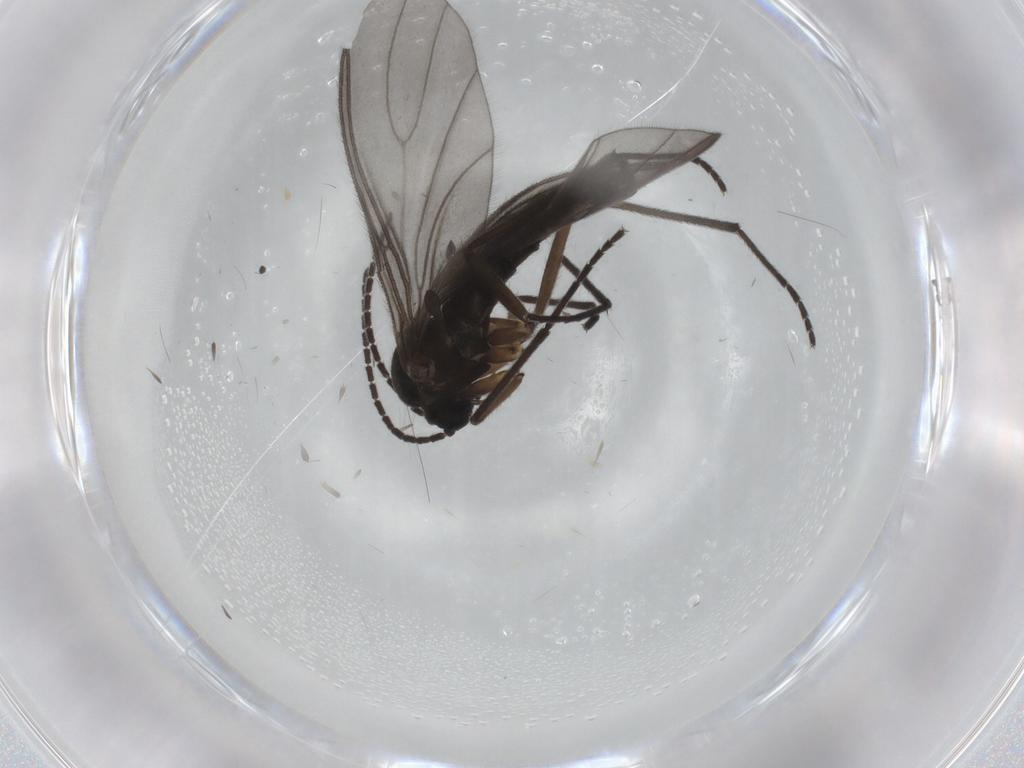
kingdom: Animalia
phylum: Arthropoda
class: Insecta
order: Diptera
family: Sciaridae
